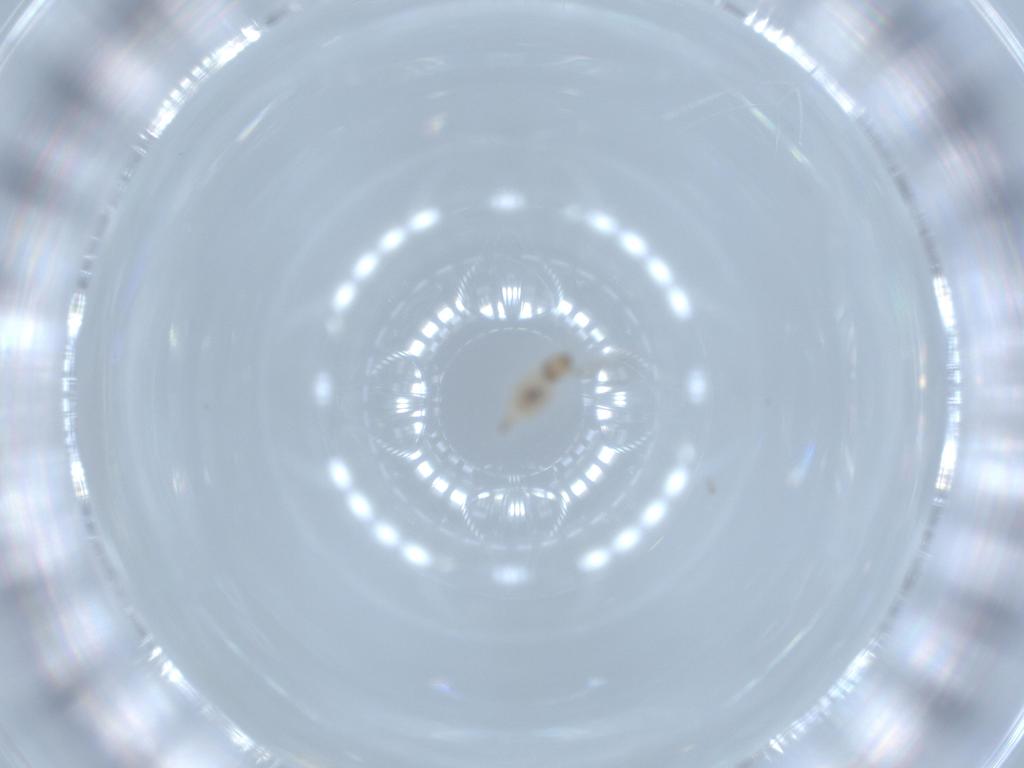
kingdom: Animalia
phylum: Arthropoda
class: Insecta
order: Diptera
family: Cecidomyiidae
